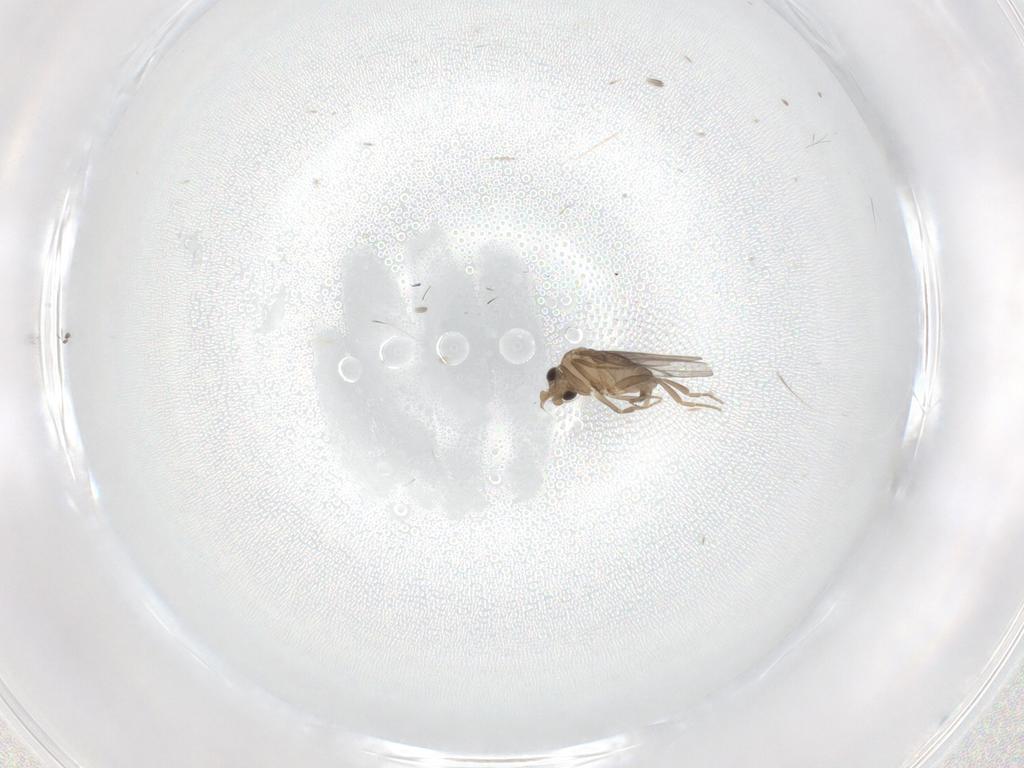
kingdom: Animalia
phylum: Arthropoda
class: Insecta
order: Diptera
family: Ceratopogonidae
